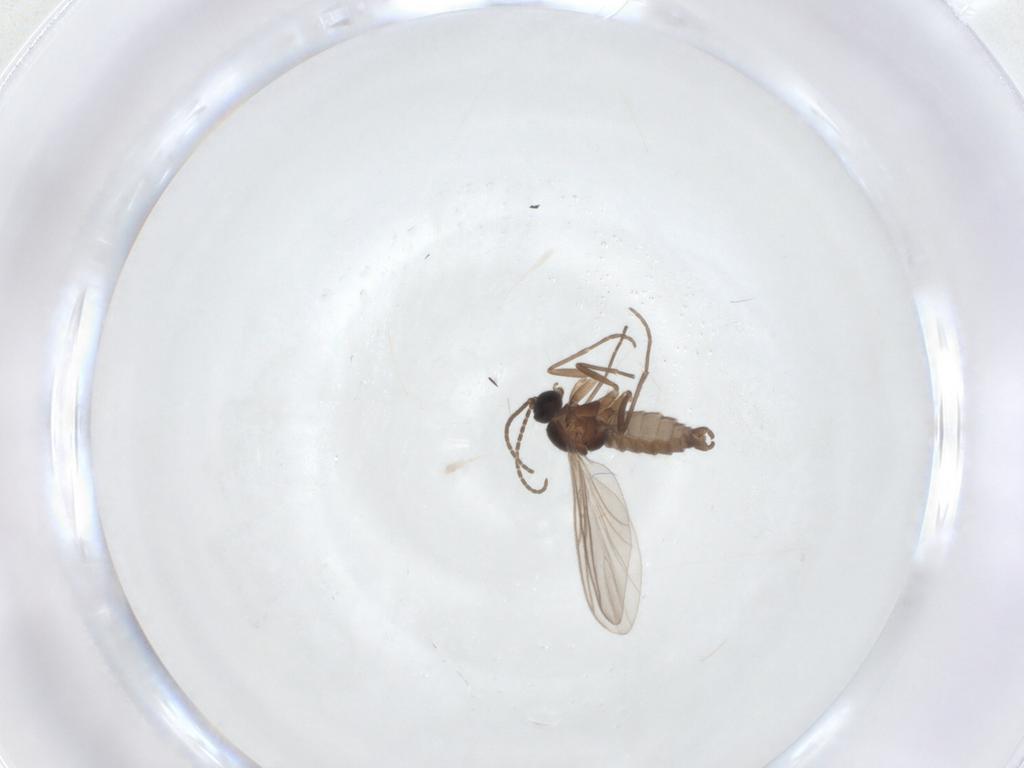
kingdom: Animalia
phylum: Arthropoda
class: Insecta
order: Diptera
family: Sciaridae
